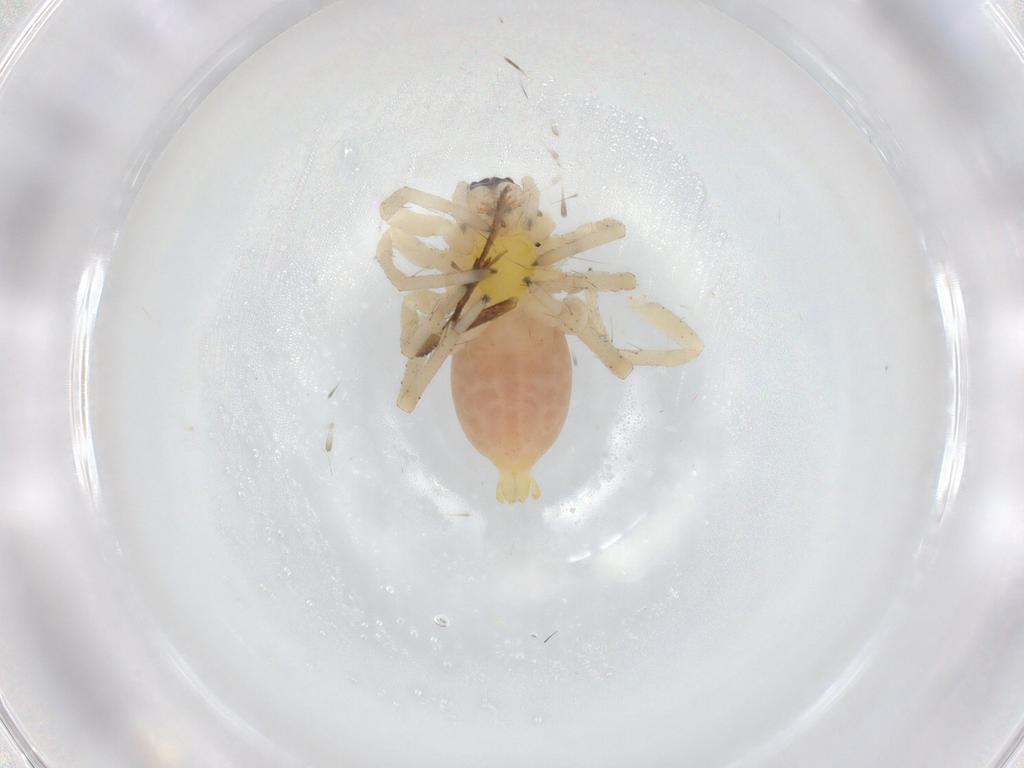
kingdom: Animalia
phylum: Arthropoda
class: Arachnida
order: Araneae
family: Clubionidae
